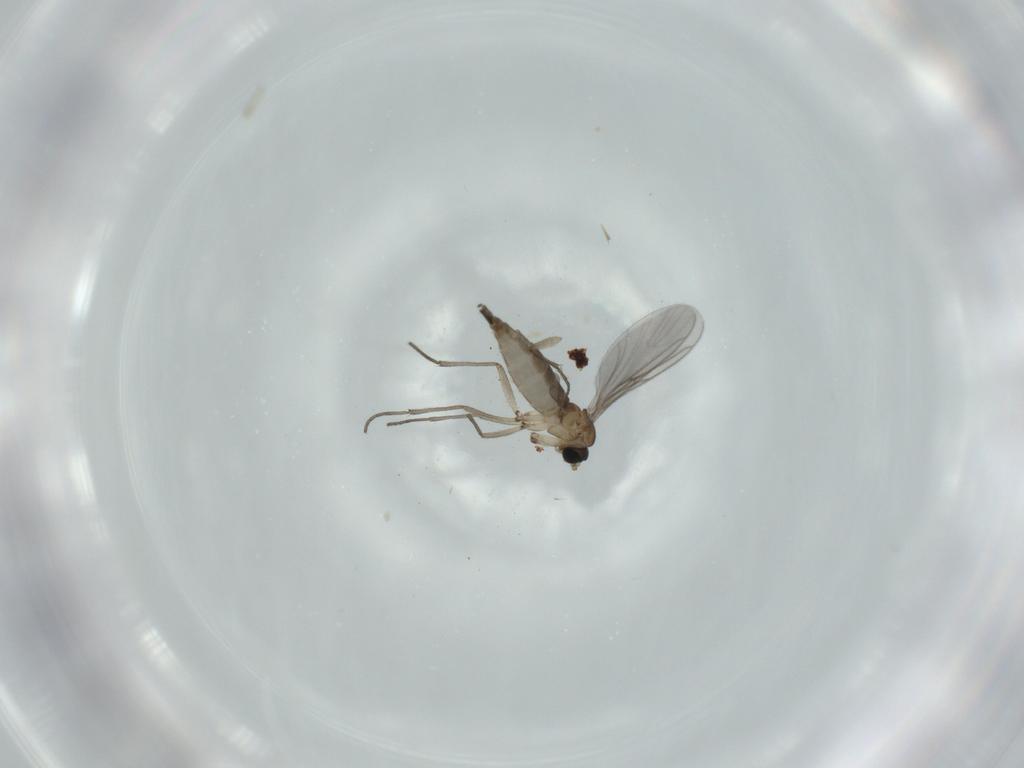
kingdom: Animalia
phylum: Arthropoda
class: Insecta
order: Diptera
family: Sciaridae
